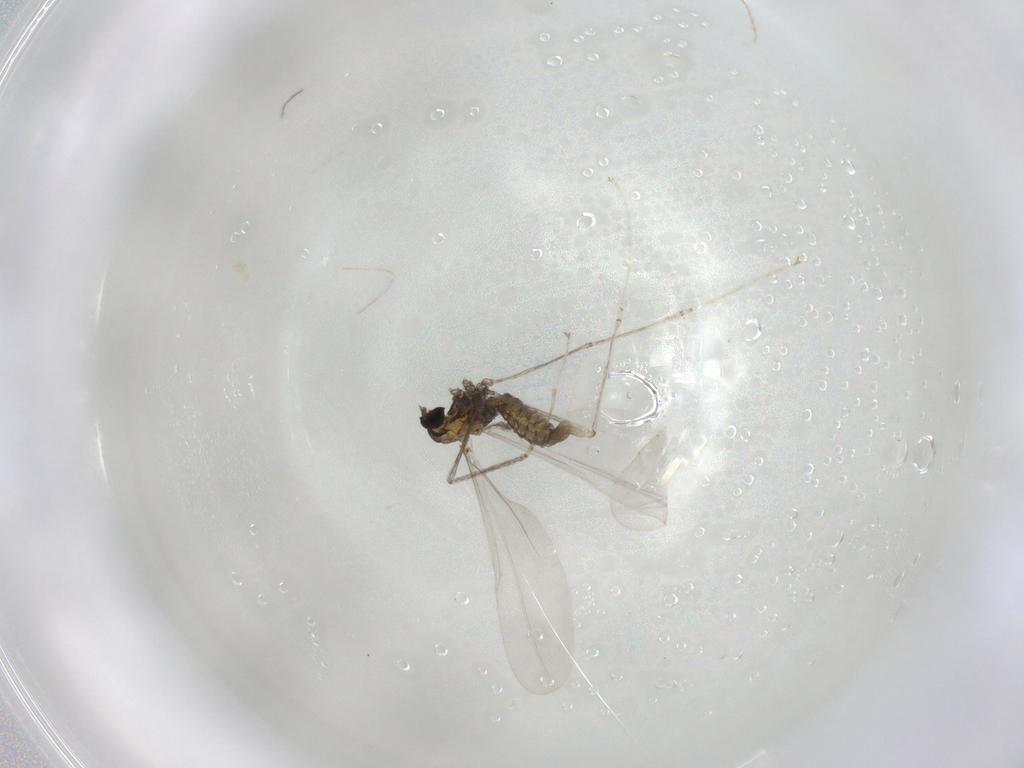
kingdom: Animalia
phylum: Arthropoda
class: Insecta
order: Diptera
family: Cecidomyiidae
